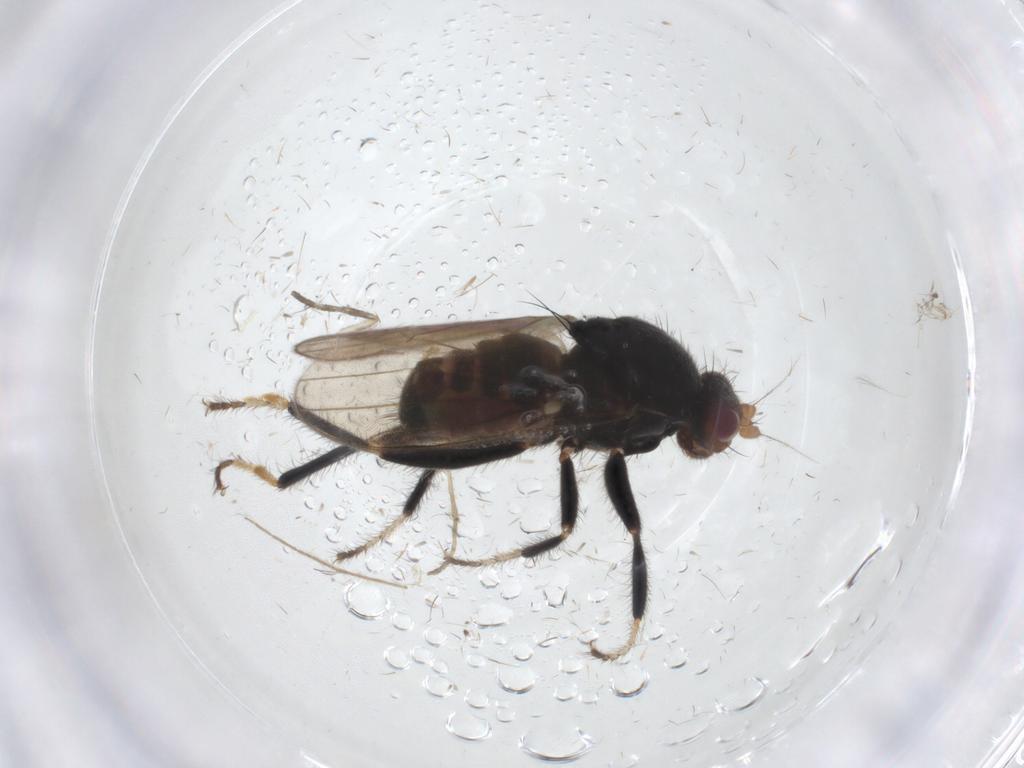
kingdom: Animalia
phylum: Arthropoda
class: Insecta
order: Diptera
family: Sphaeroceridae
